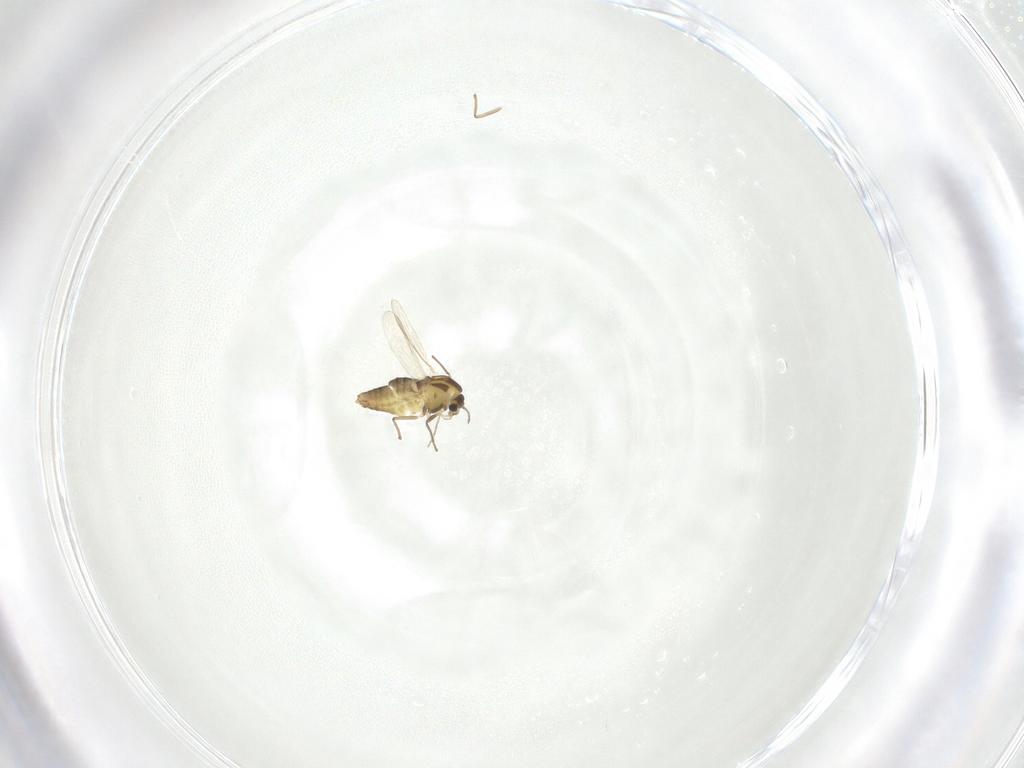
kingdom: Animalia
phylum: Arthropoda
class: Insecta
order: Diptera
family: Chironomidae
